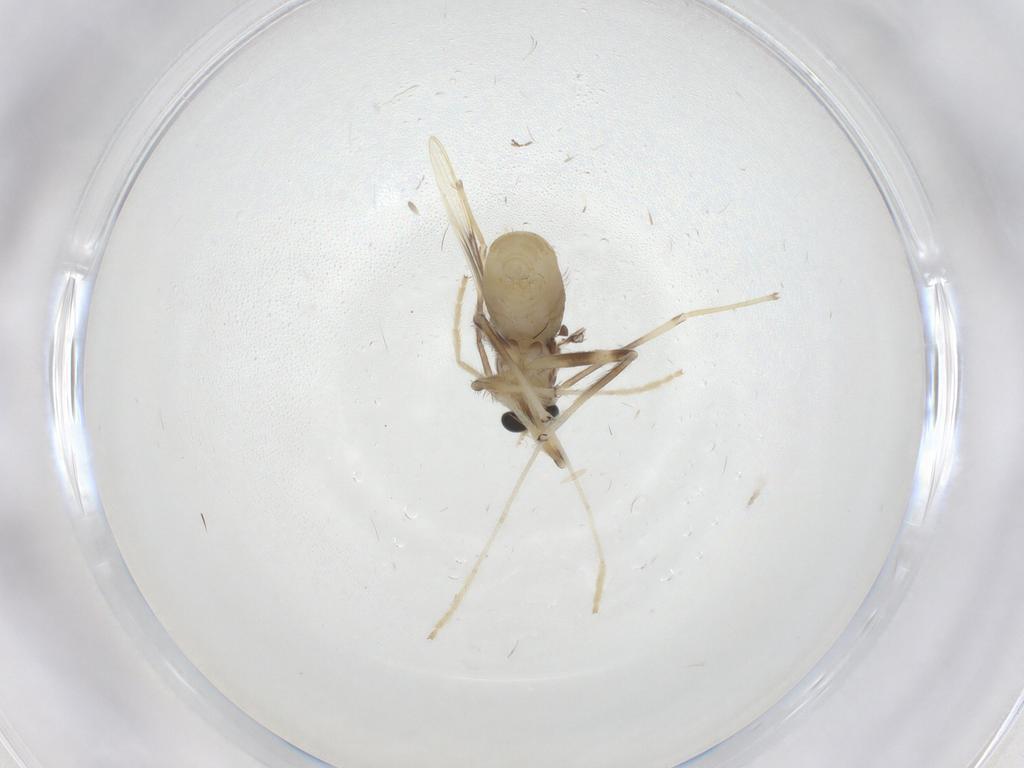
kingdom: Animalia
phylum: Arthropoda
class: Insecta
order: Diptera
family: Chironomidae
